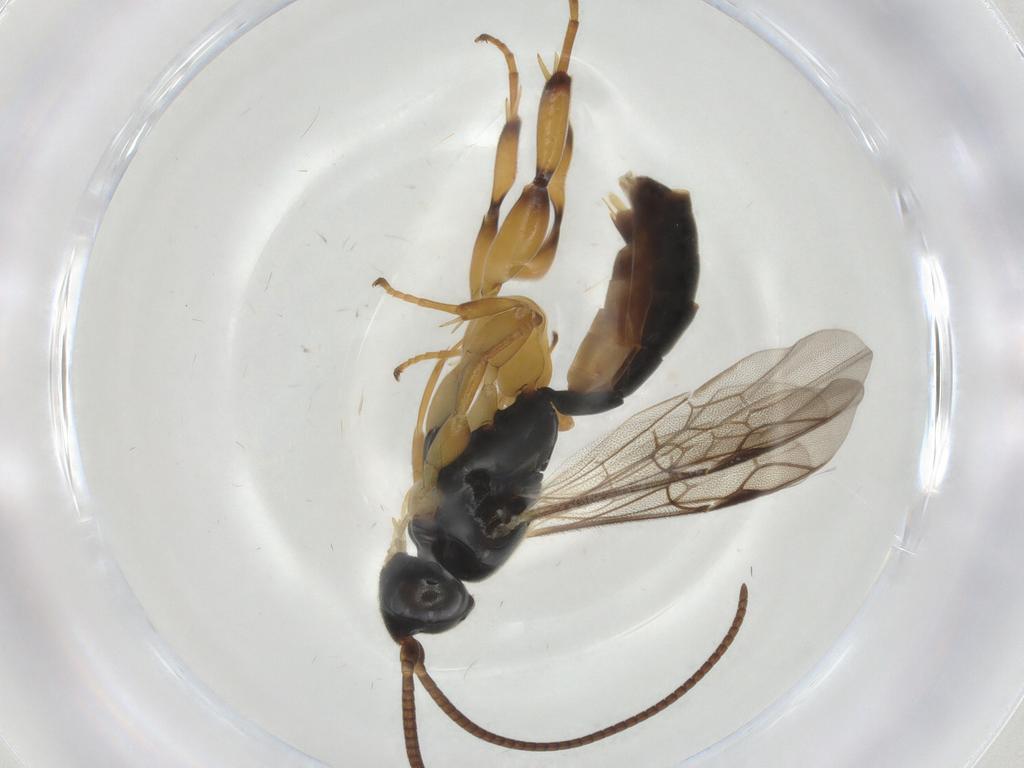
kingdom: Animalia
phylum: Arthropoda
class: Insecta
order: Hymenoptera
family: Ichneumonidae
